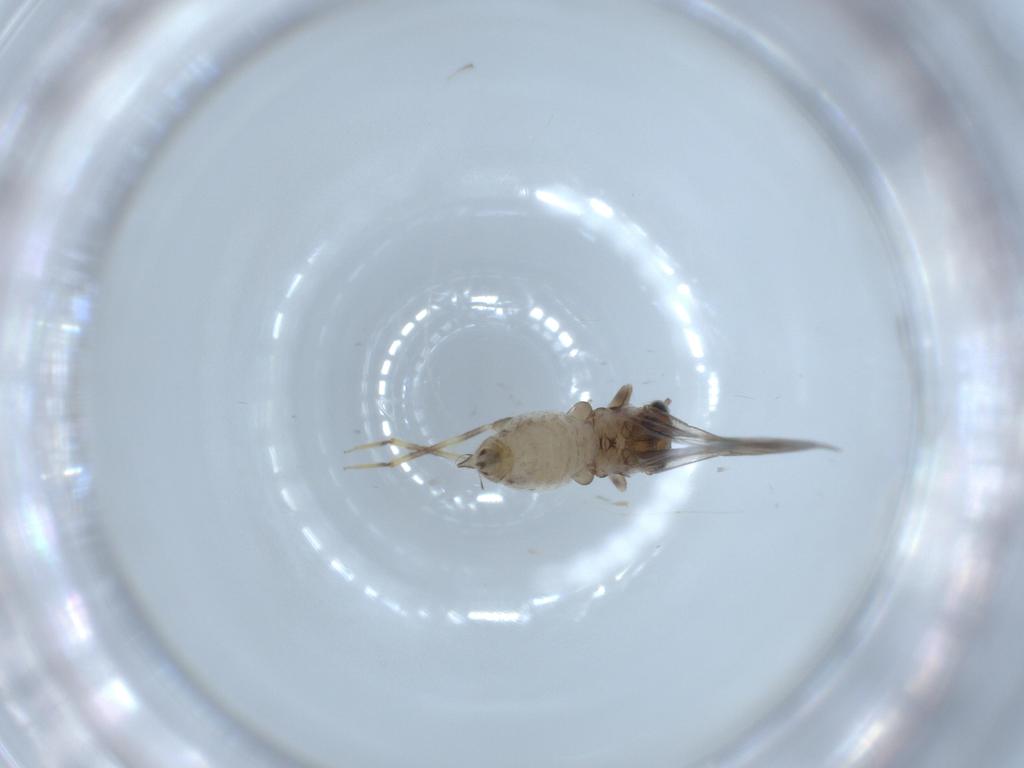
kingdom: Animalia
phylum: Arthropoda
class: Insecta
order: Psocodea
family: Lepidopsocidae
